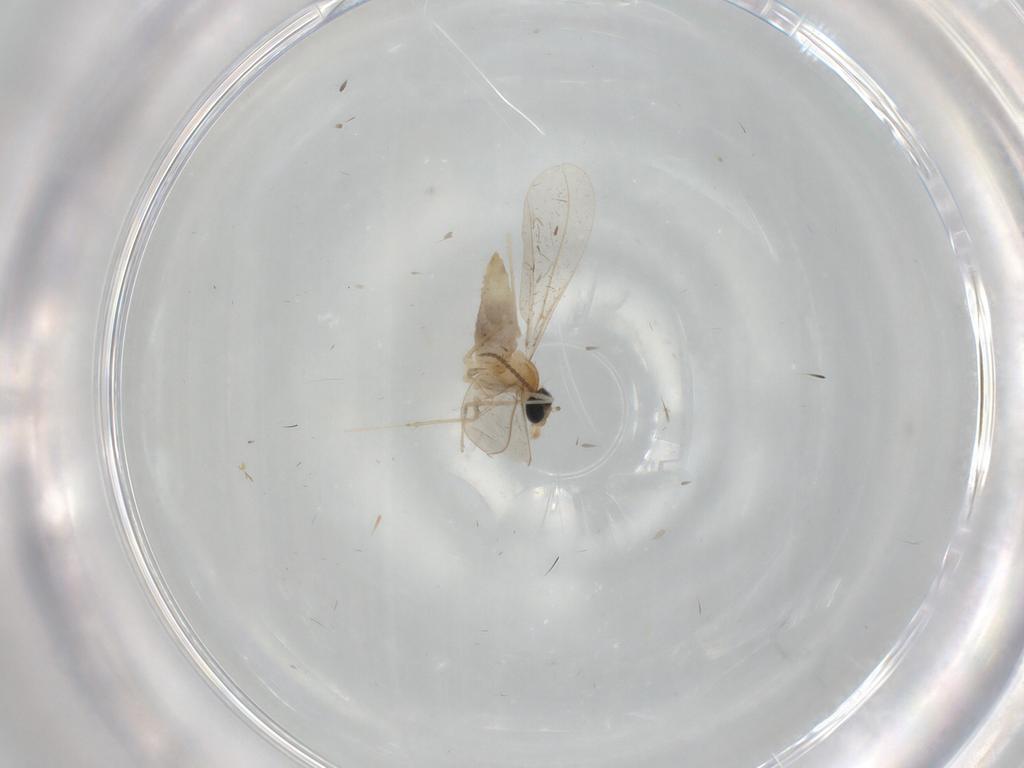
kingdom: Animalia
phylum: Arthropoda
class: Insecta
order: Diptera
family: Cecidomyiidae
